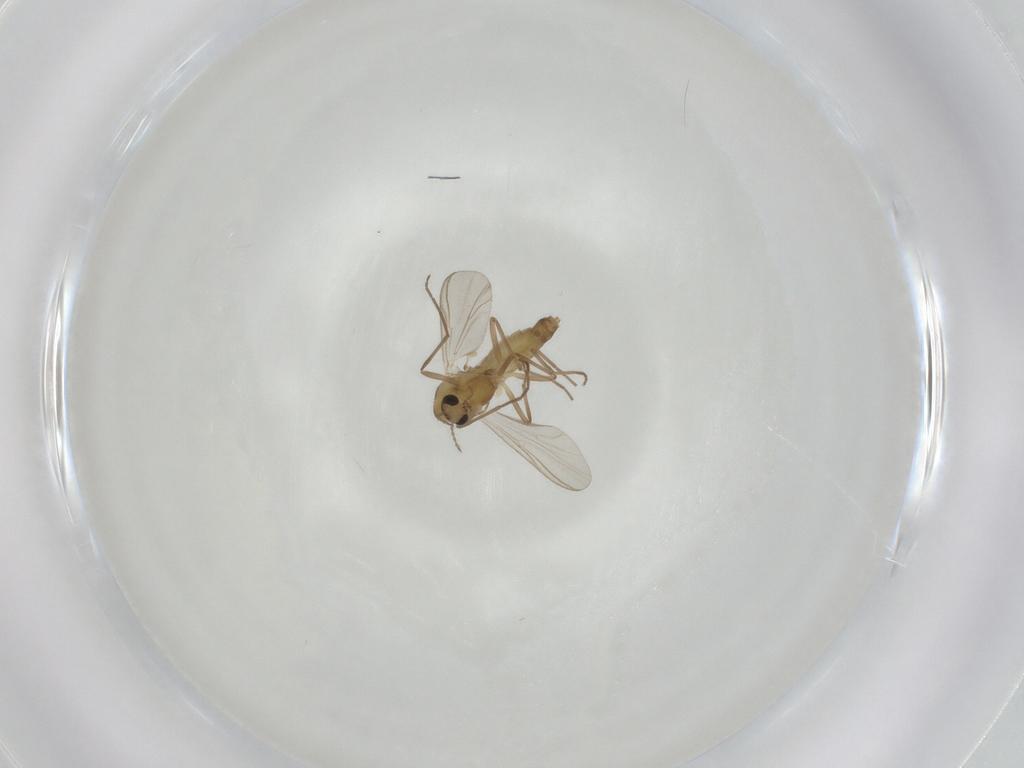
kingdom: Animalia
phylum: Arthropoda
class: Insecta
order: Diptera
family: Chironomidae
